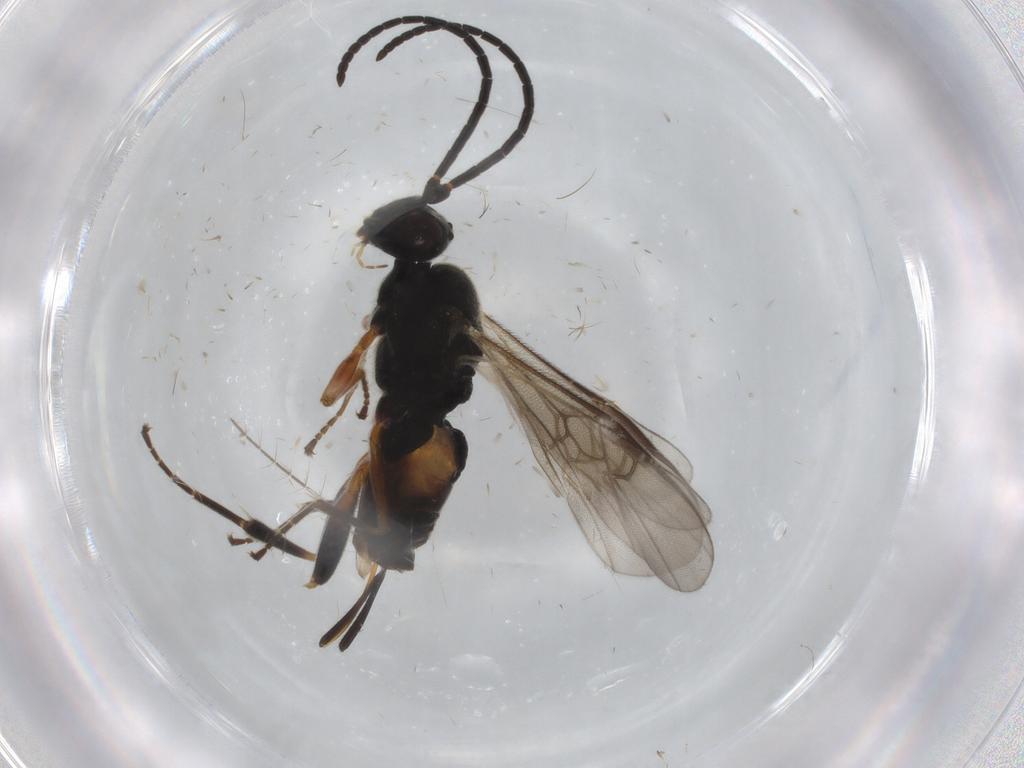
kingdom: Animalia
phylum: Arthropoda
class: Insecta
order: Hymenoptera
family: Braconidae
